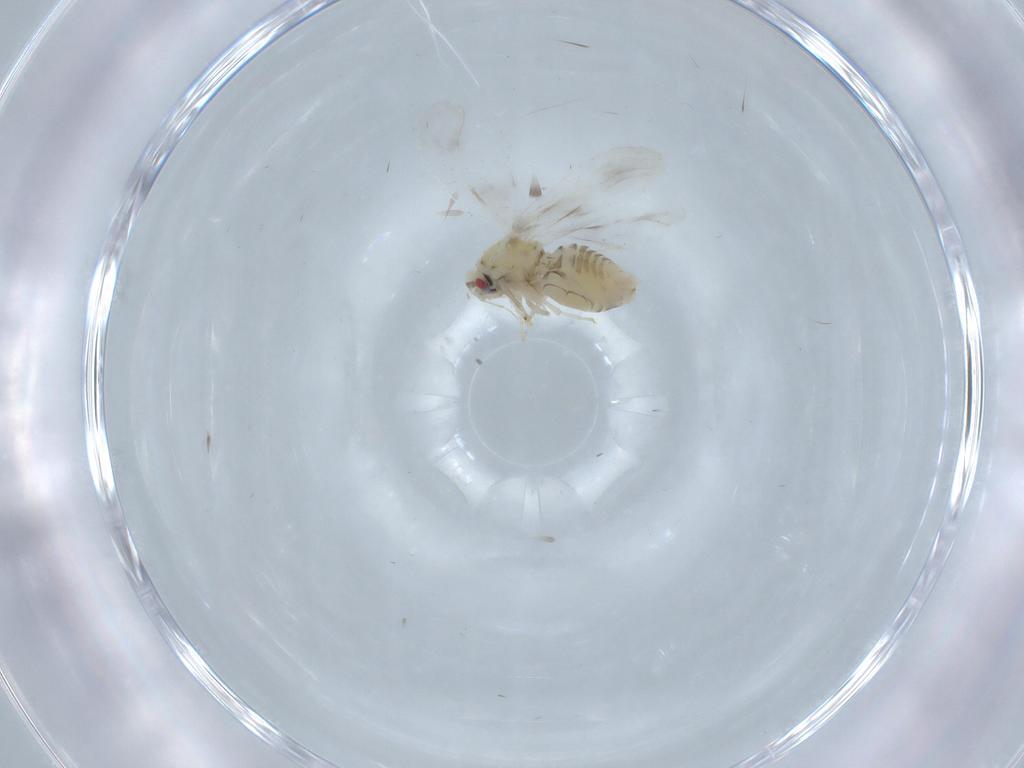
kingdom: Animalia
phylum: Arthropoda
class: Insecta
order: Hemiptera
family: Aleyrodidae
